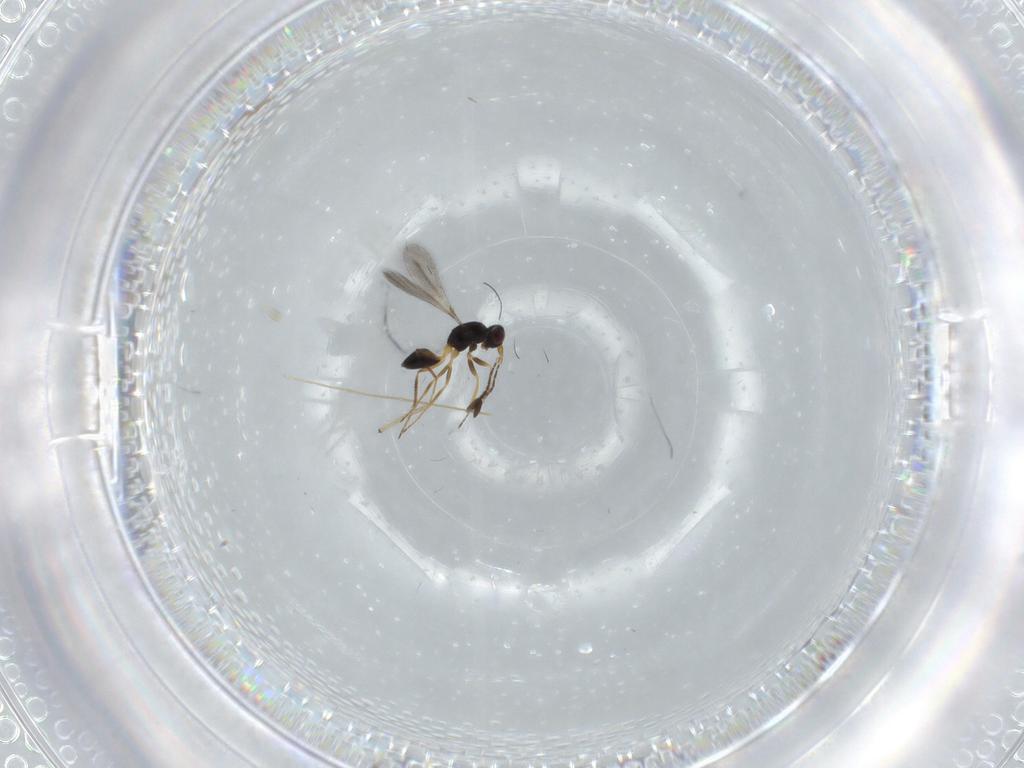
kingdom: Animalia
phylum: Arthropoda
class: Insecta
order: Hymenoptera
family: Mymaridae
